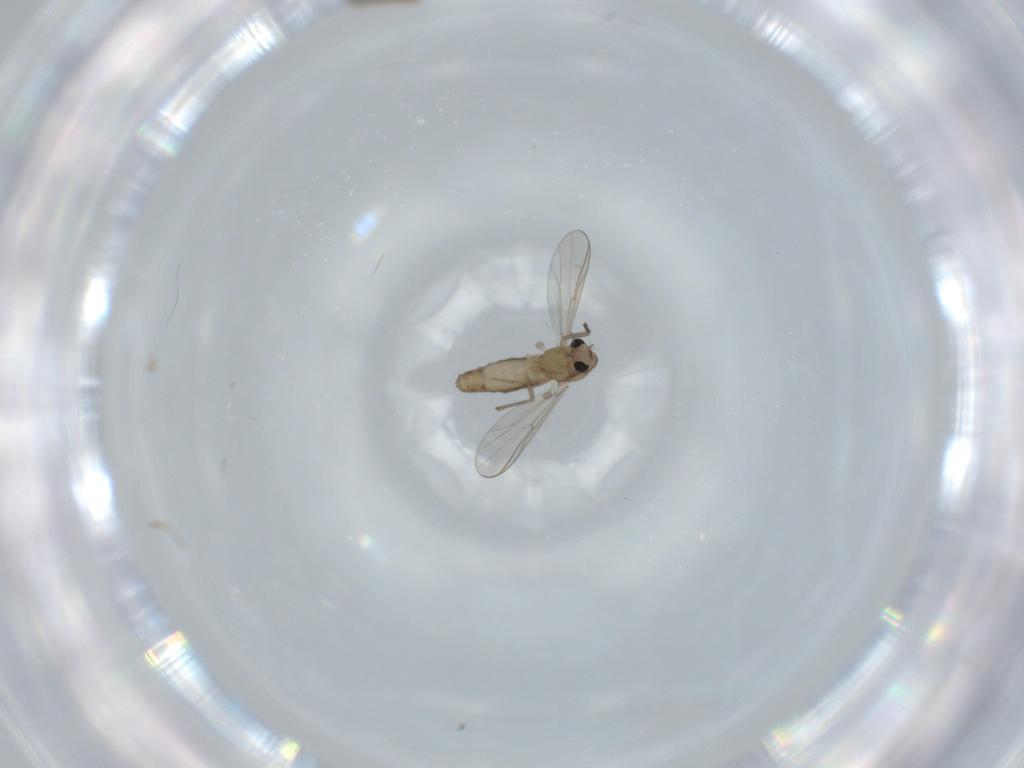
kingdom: Animalia
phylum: Arthropoda
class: Insecta
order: Diptera
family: Chironomidae
